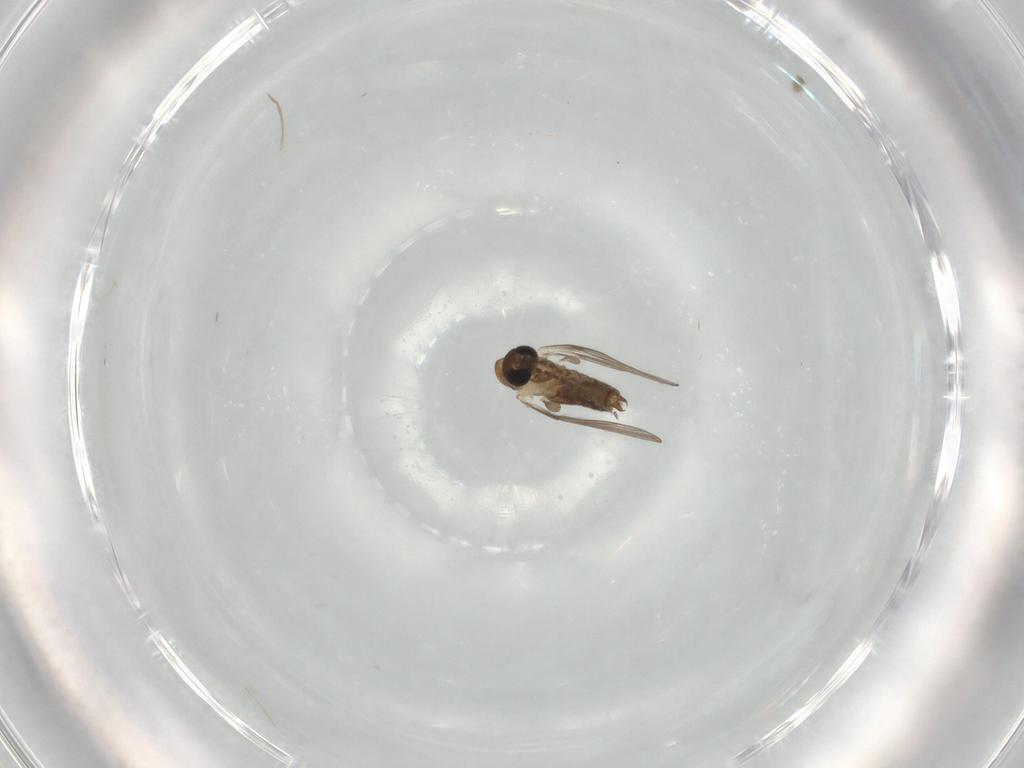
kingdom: Animalia
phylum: Arthropoda
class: Insecta
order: Diptera
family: Psychodidae
